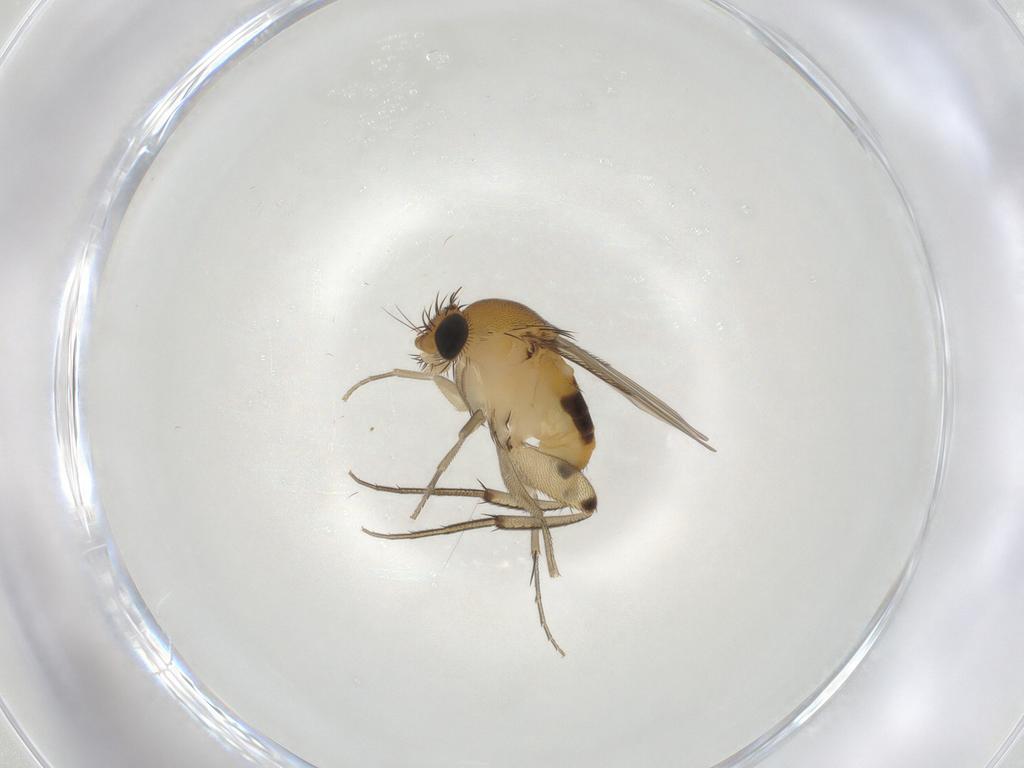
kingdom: Animalia
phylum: Arthropoda
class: Insecta
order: Diptera
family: Phoridae
